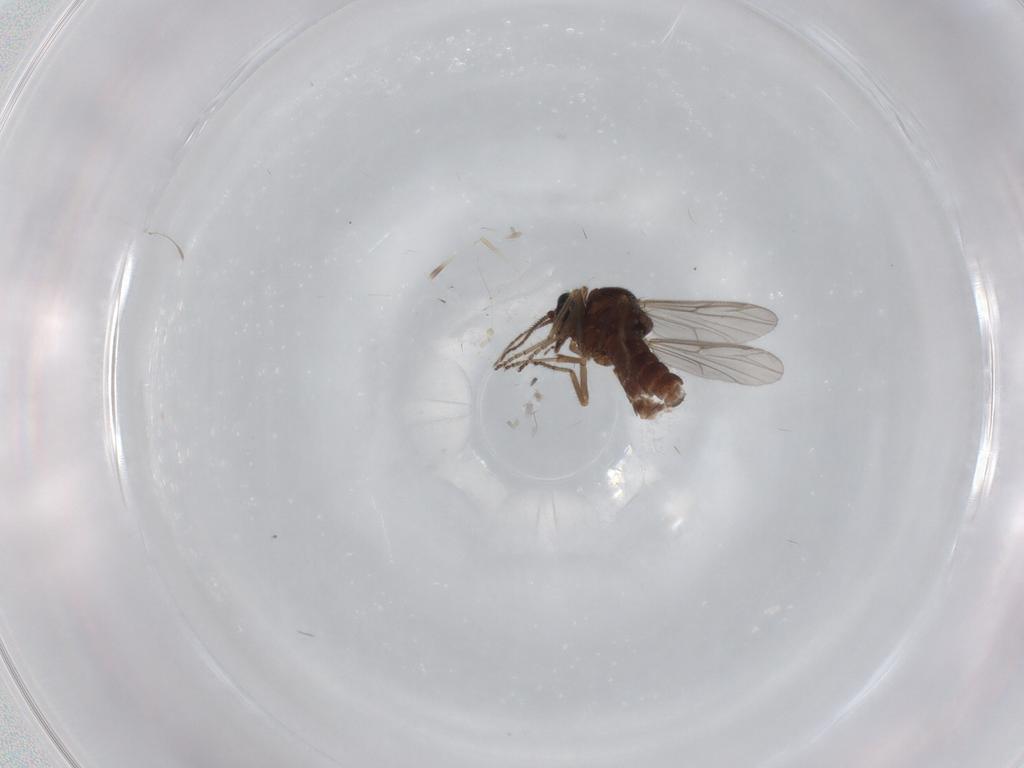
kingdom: Animalia
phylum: Arthropoda
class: Insecta
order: Diptera
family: Ceratopogonidae
